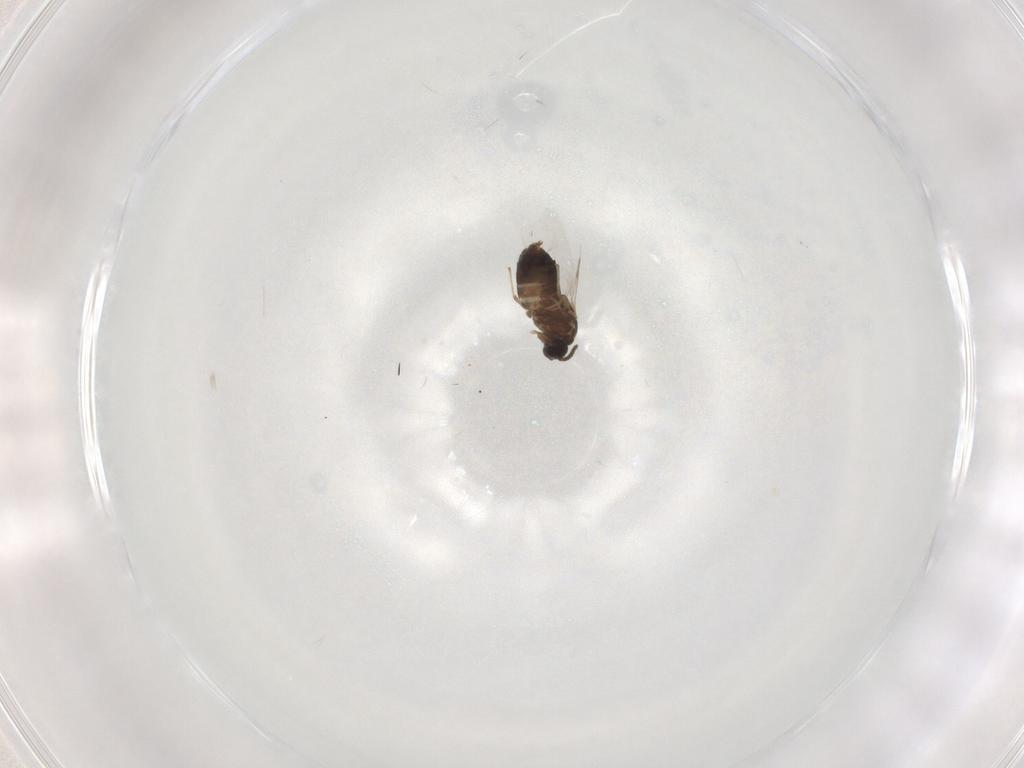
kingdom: Animalia
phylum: Arthropoda
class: Insecta
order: Diptera
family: Scatopsidae
